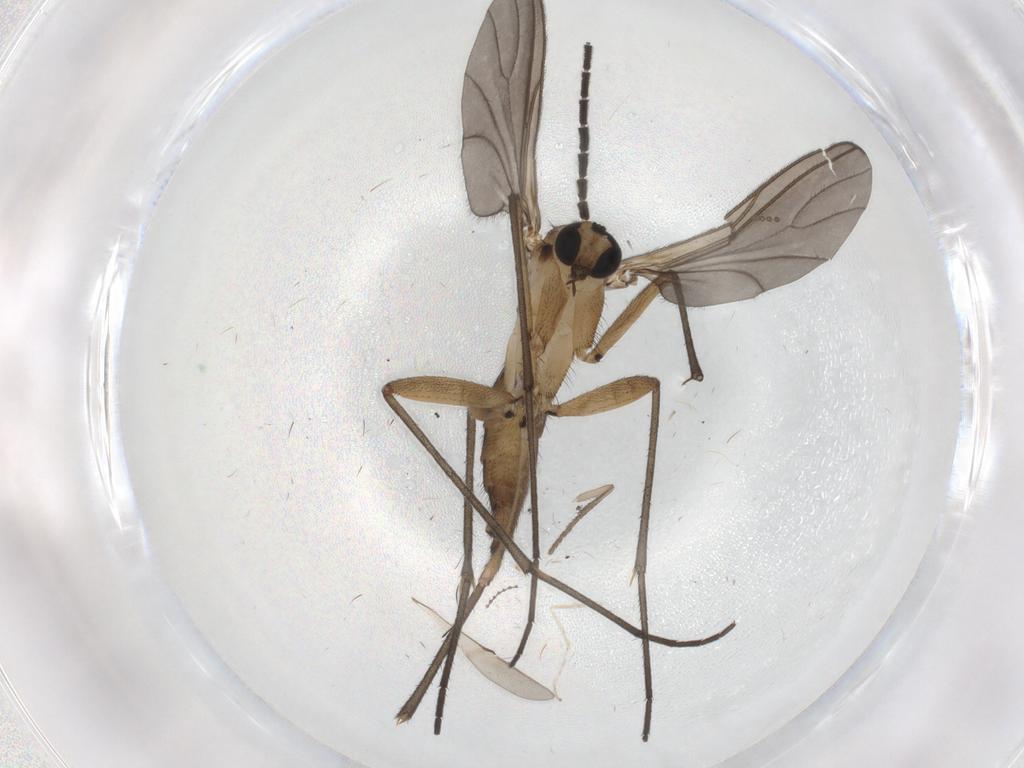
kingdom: Animalia
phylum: Arthropoda
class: Insecta
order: Diptera
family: Psychodidae
